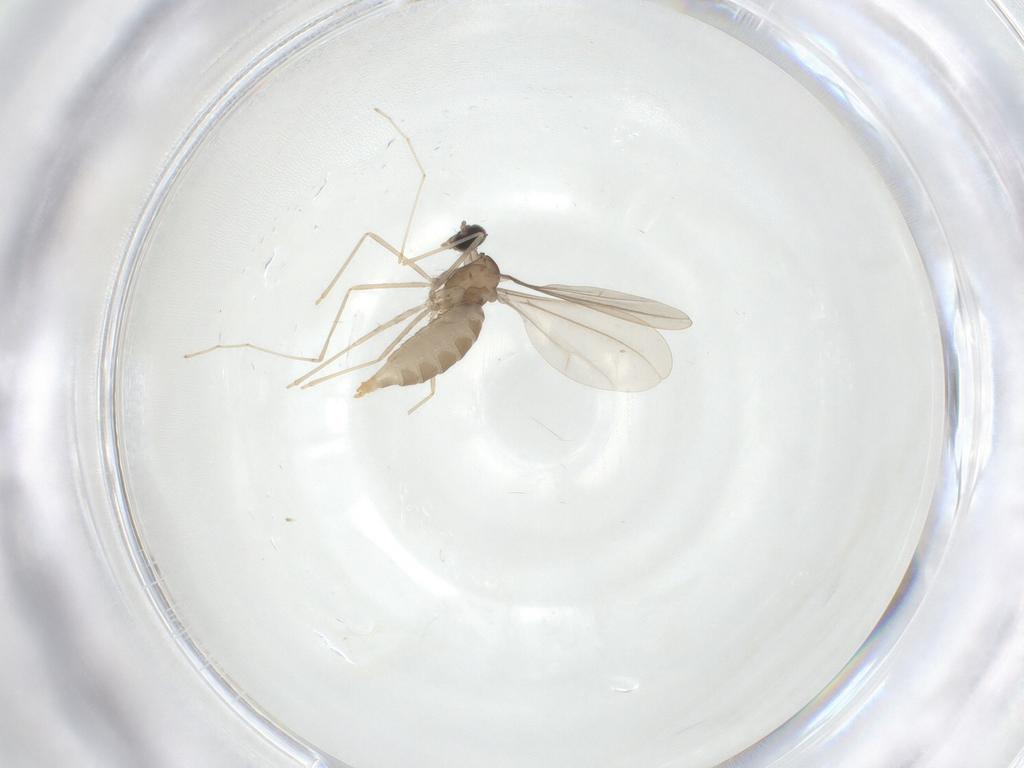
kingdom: Animalia
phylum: Arthropoda
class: Insecta
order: Diptera
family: Cecidomyiidae
